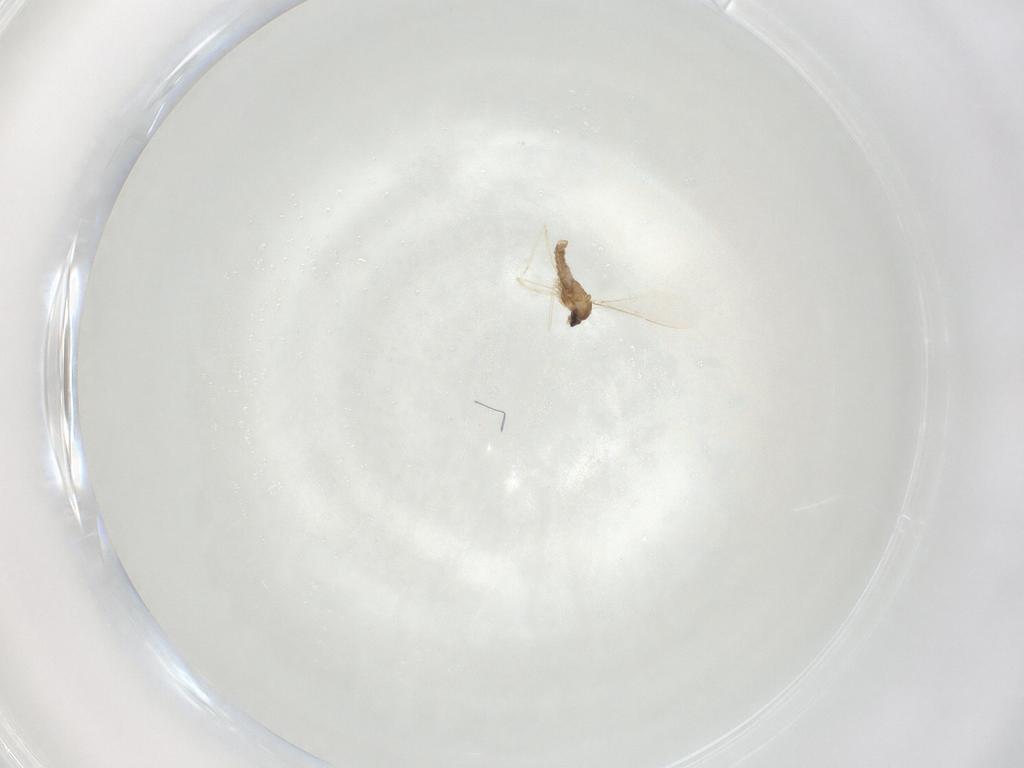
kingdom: Animalia
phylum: Arthropoda
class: Insecta
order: Diptera
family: Cecidomyiidae
